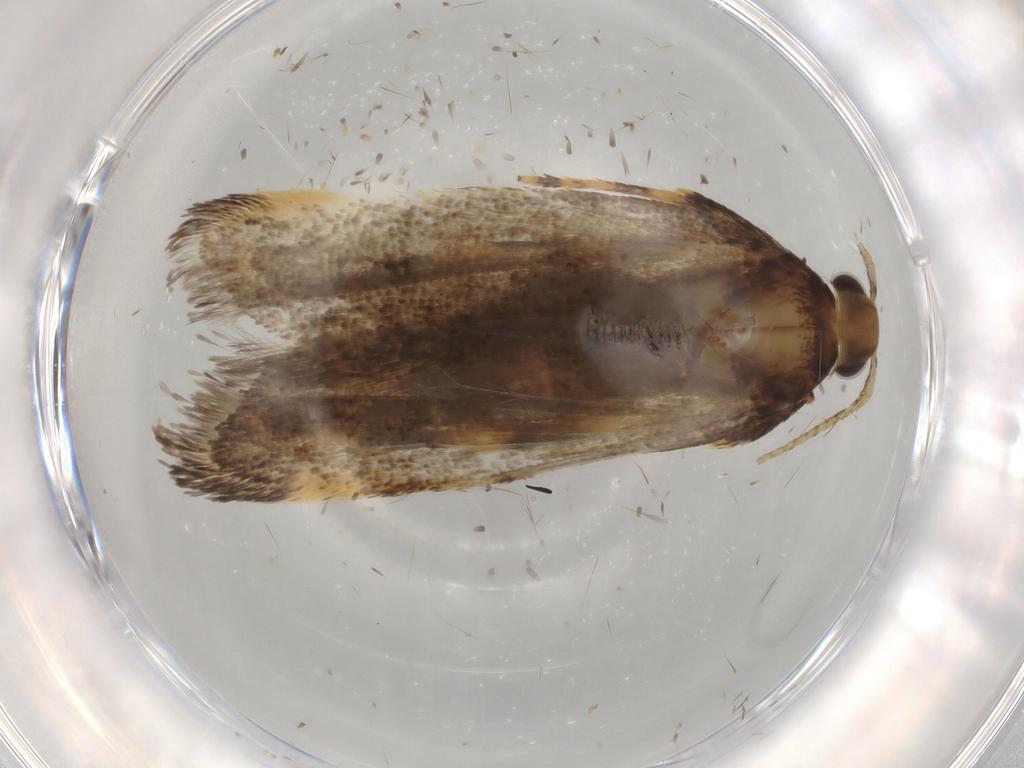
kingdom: Animalia
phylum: Arthropoda
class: Insecta
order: Lepidoptera
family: Lecithoceridae
